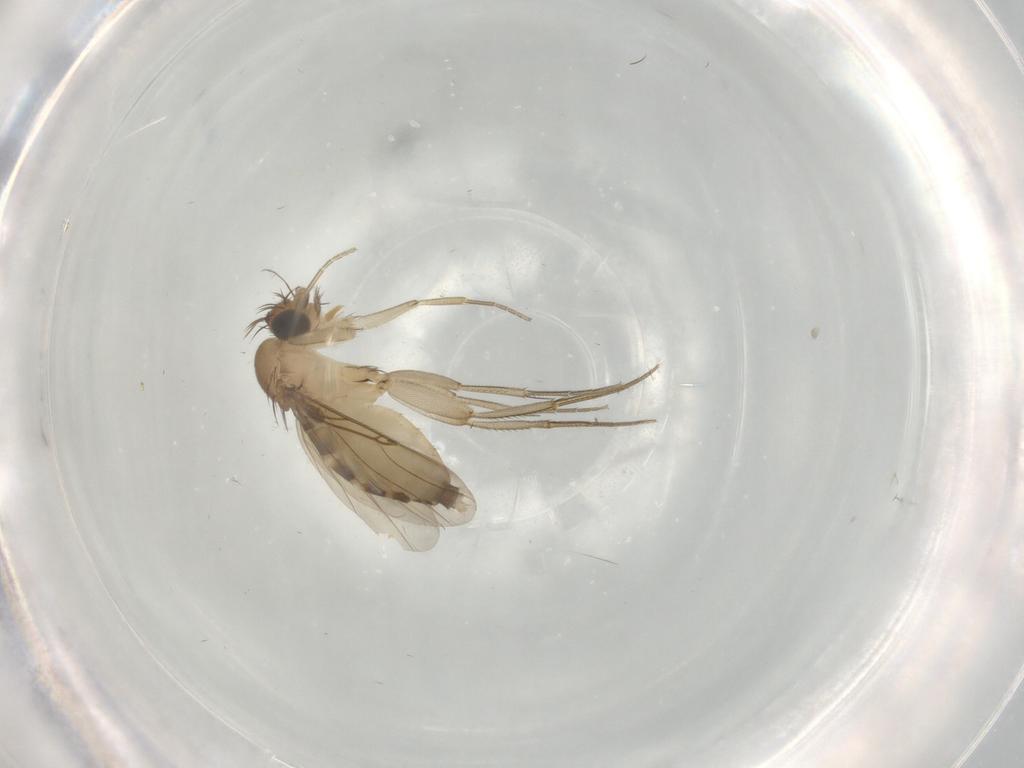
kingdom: Animalia
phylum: Arthropoda
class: Insecta
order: Diptera
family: Phoridae
